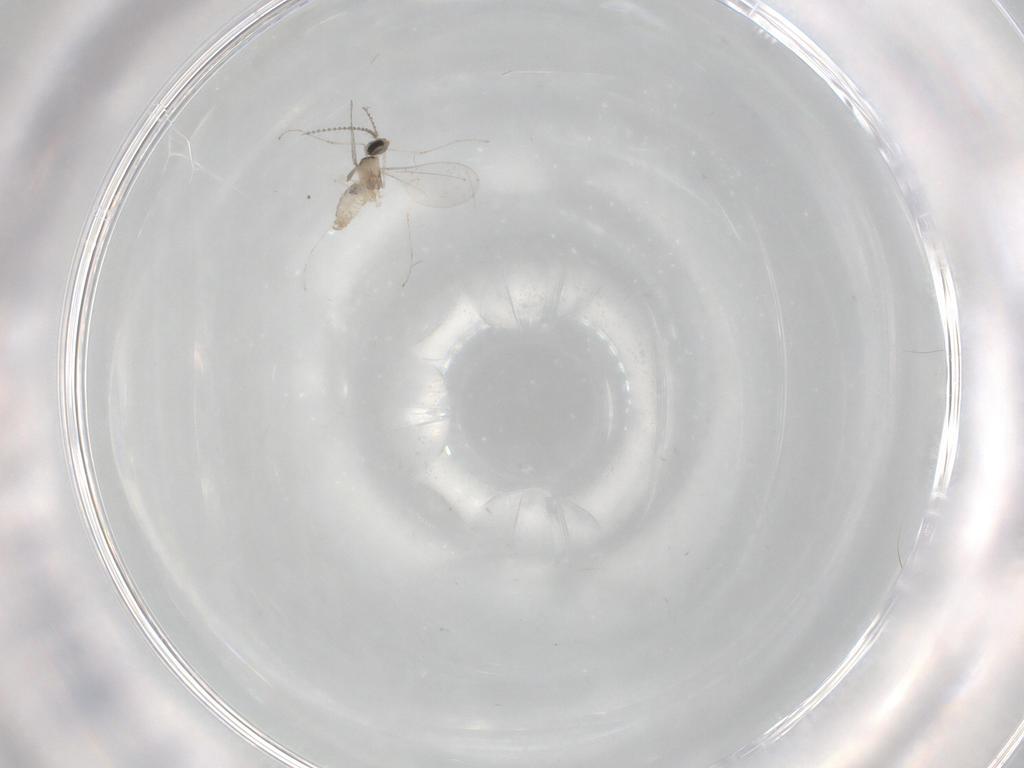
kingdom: Animalia
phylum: Arthropoda
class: Insecta
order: Diptera
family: Cecidomyiidae
